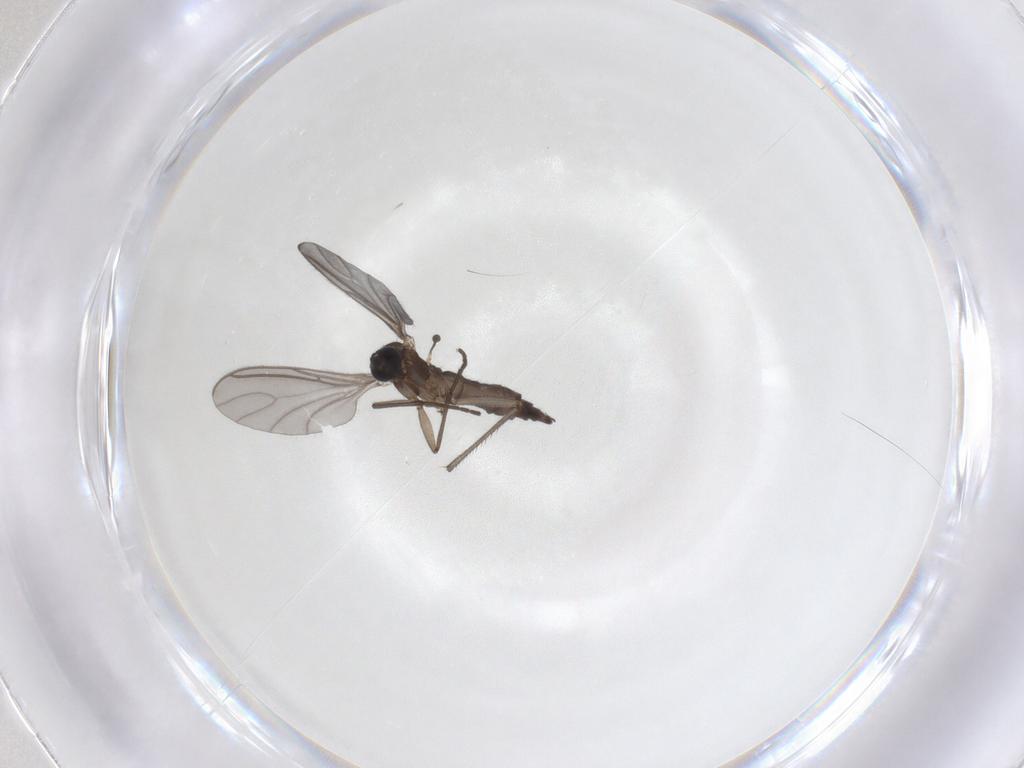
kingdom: Animalia
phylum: Arthropoda
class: Insecta
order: Diptera
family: Sciaridae
